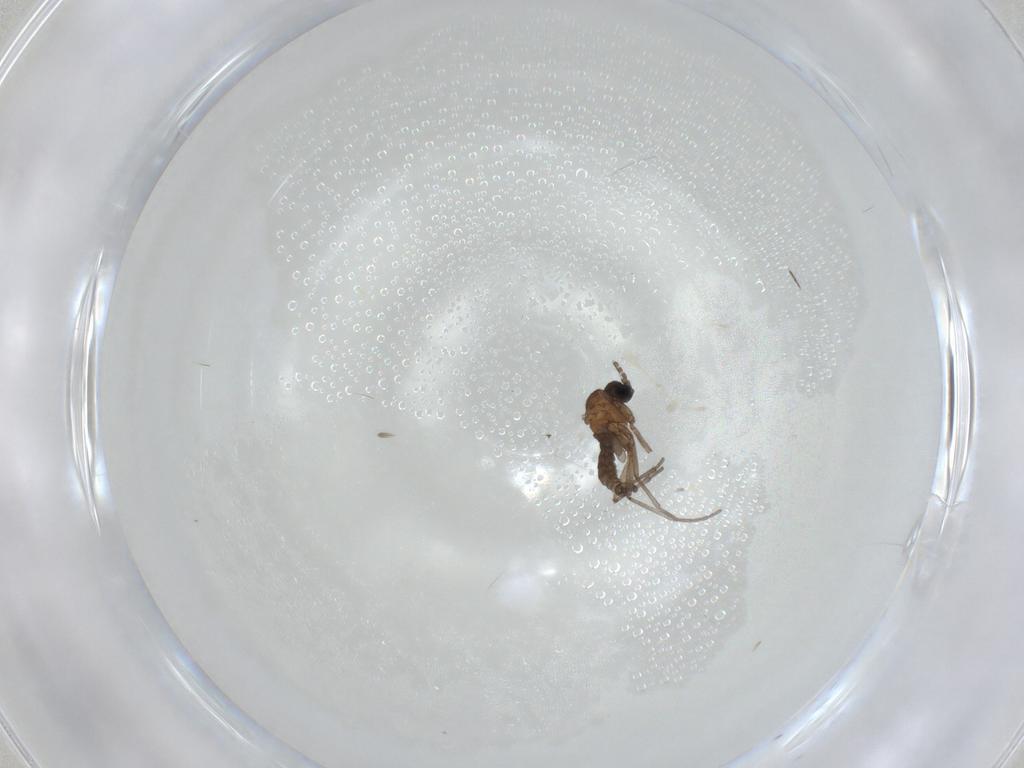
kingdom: Animalia
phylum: Arthropoda
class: Insecta
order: Diptera
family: Sciaridae
